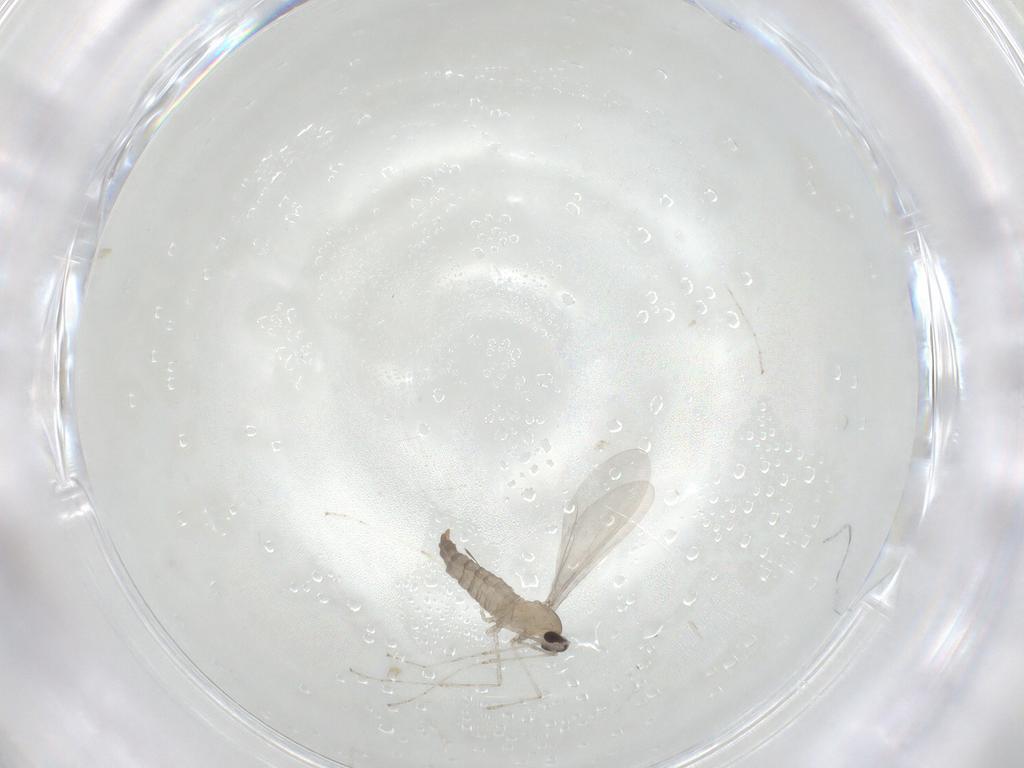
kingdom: Animalia
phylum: Arthropoda
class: Insecta
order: Diptera
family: Cecidomyiidae
